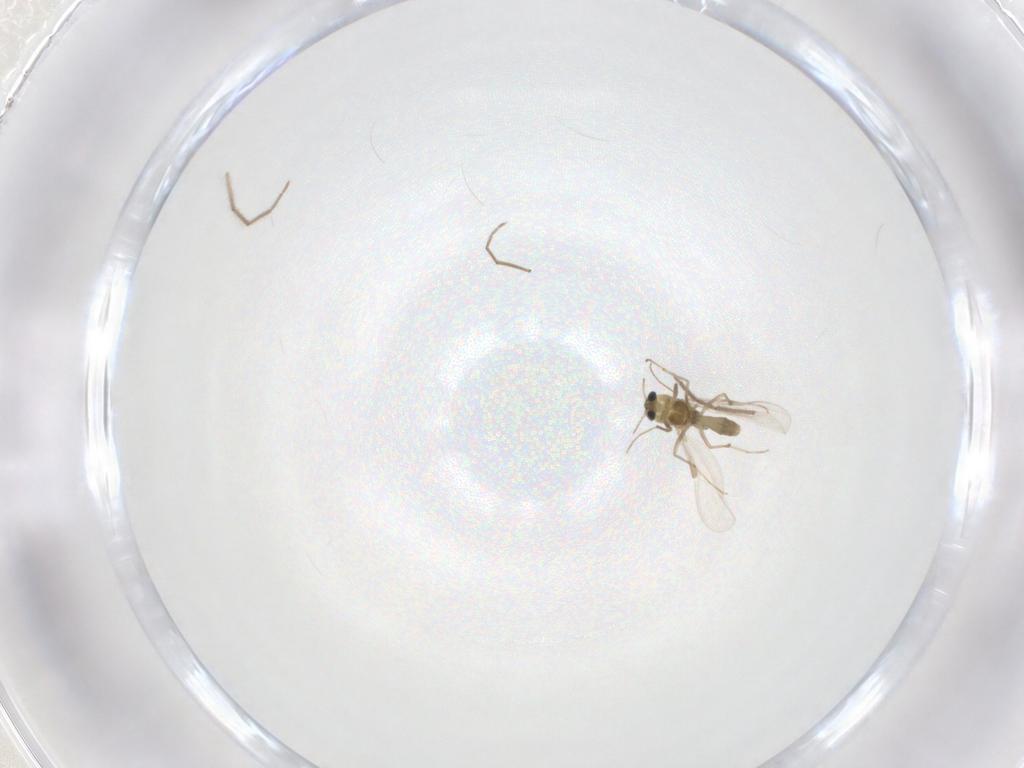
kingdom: Animalia
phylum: Arthropoda
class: Insecta
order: Diptera
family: Chironomidae
